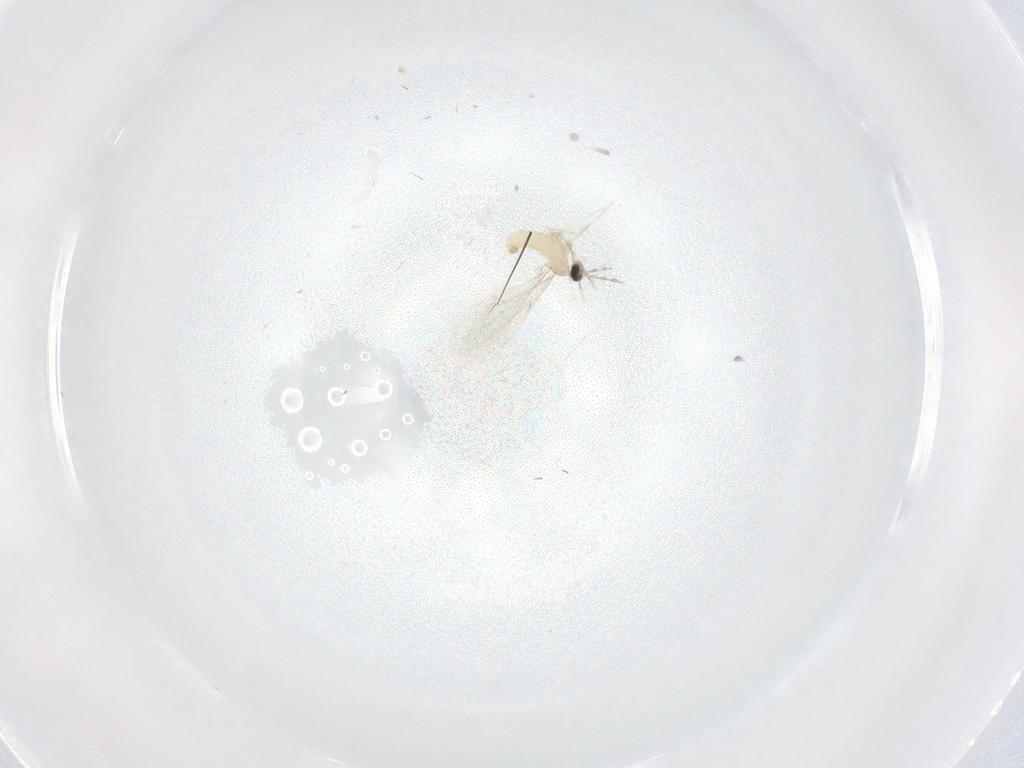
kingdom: Animalia
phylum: Arthropoda
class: Insecta
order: Diptera
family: Cecidomyiidae
